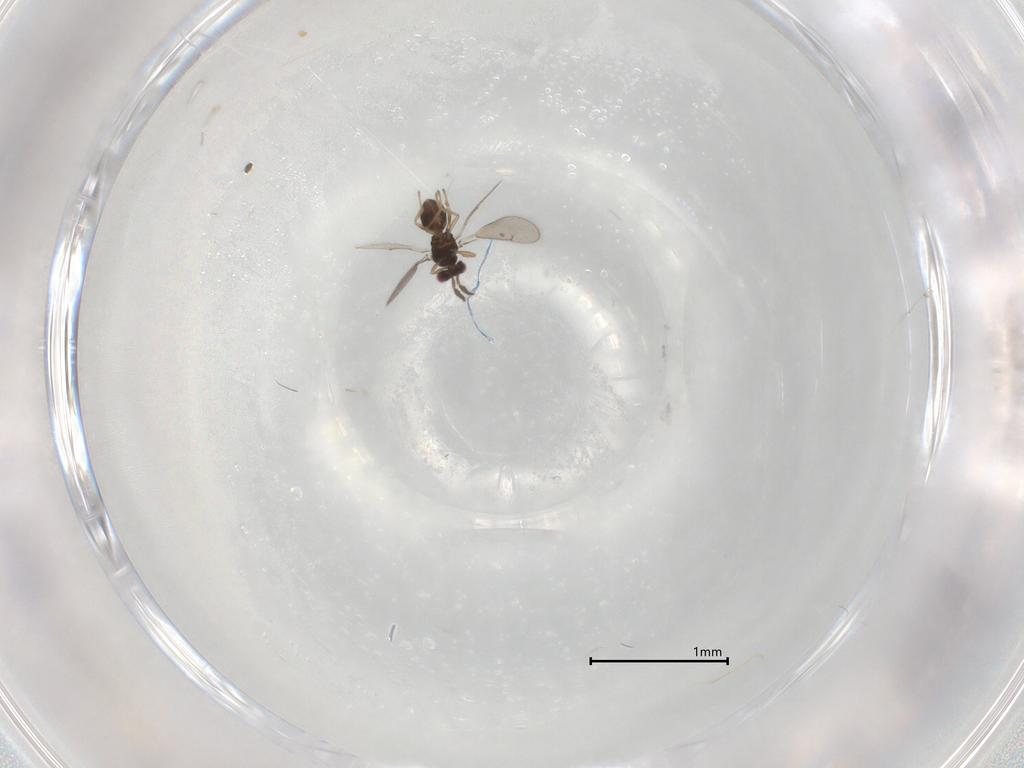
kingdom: Animalia
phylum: Arthropoda
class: Insecta
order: Hymenoptera
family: Eulophidae
